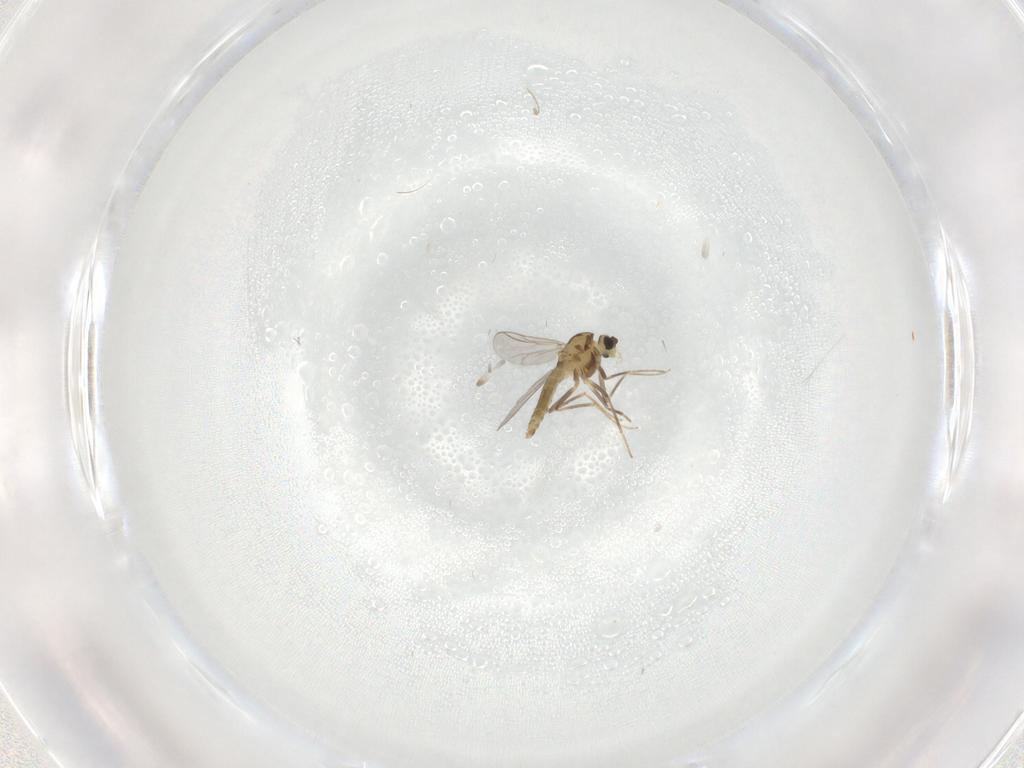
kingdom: Animalia
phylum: Arthropoda
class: Insecta
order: Diptera
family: Chironomidae
